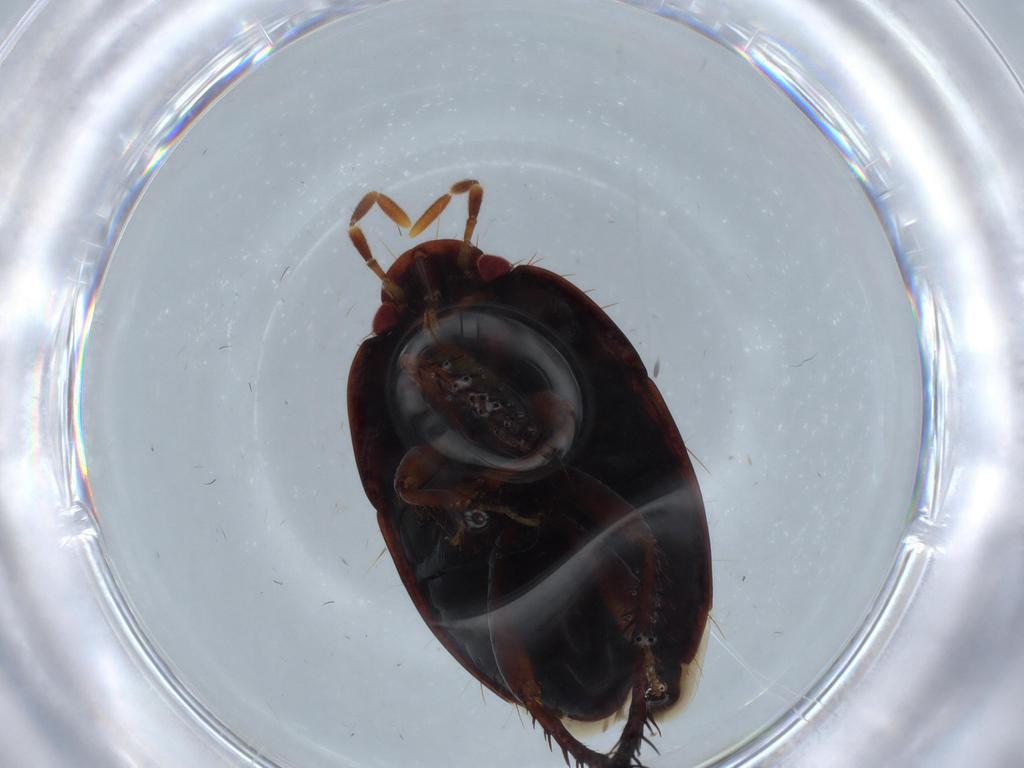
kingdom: Animalia
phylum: Arthropoda
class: Insecta
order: Hemiptera
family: Cydnidae
